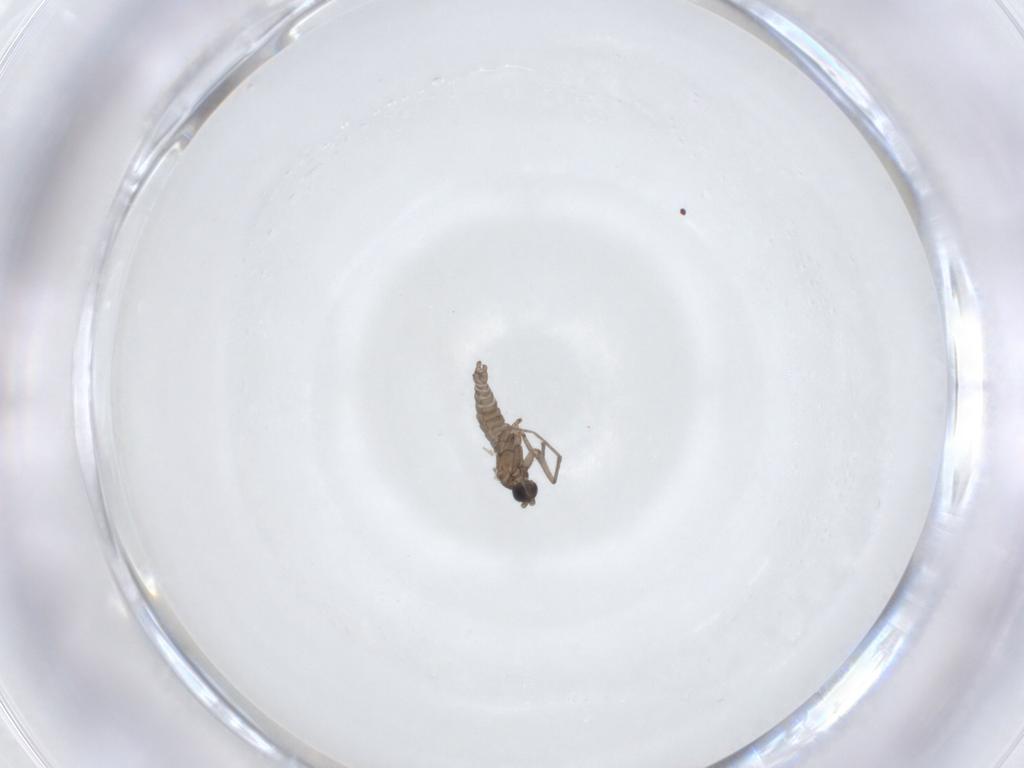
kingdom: Animalia
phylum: Arthropoda
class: Insecta
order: Diptera
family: Sciaridae
